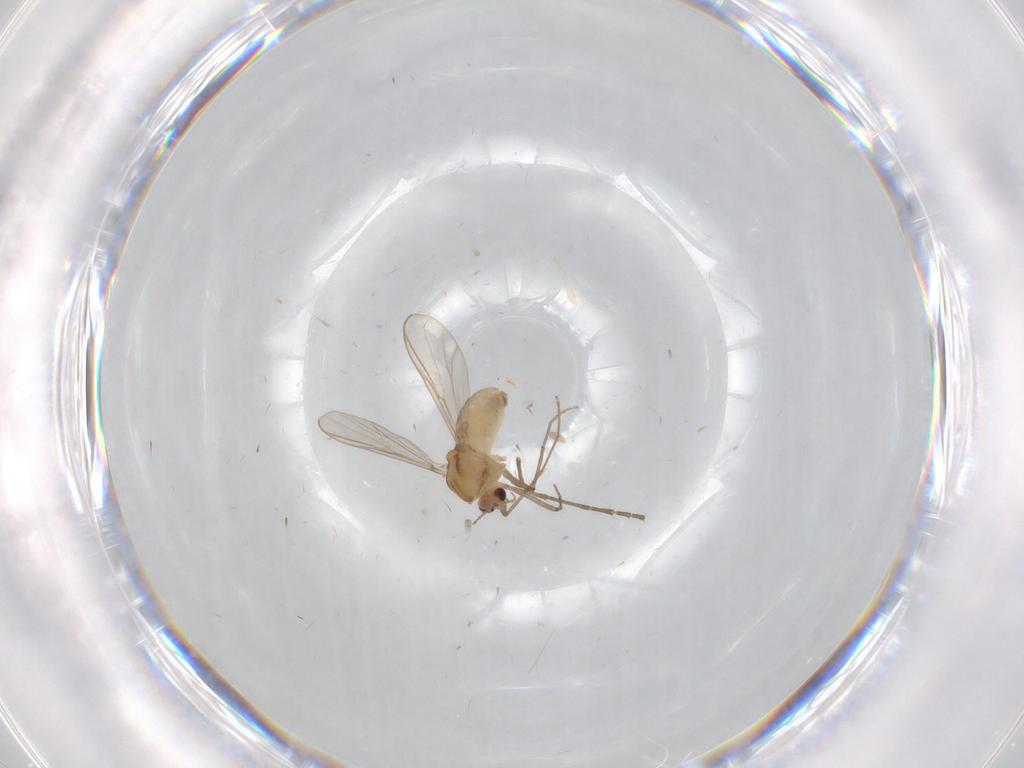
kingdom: Animalia
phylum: Arthropoda
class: Insecta
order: Diptera
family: Chironomidae
